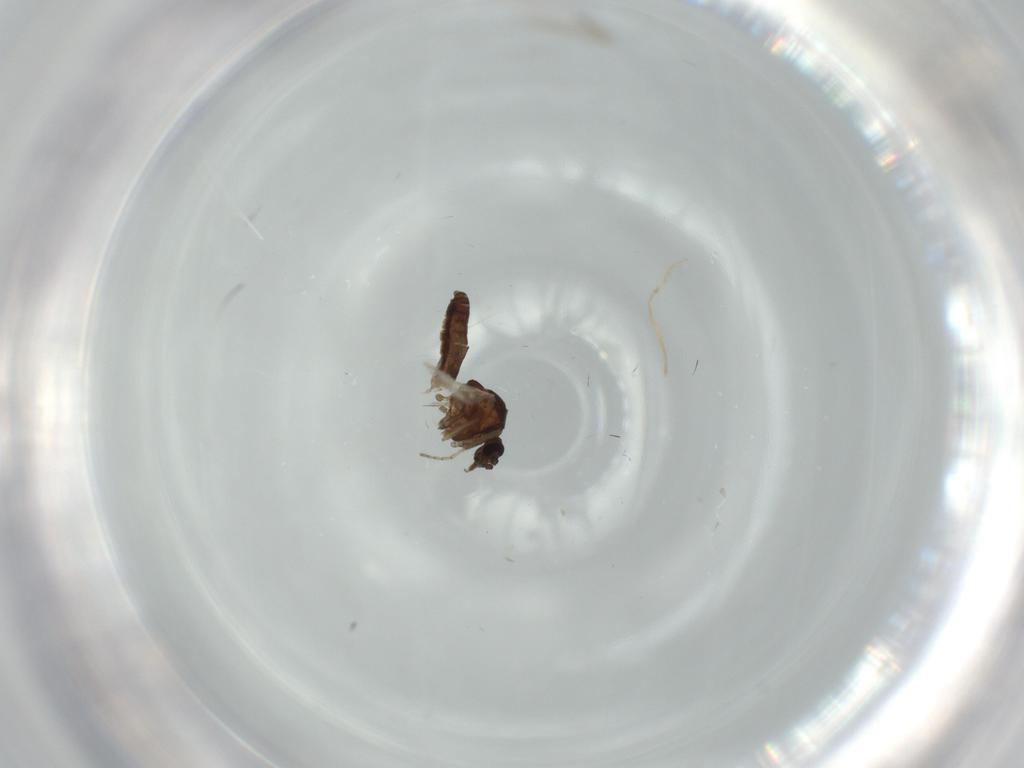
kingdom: Animalia
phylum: Arthropoda
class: Insecta
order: Diptera
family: Ceratopogonidae
